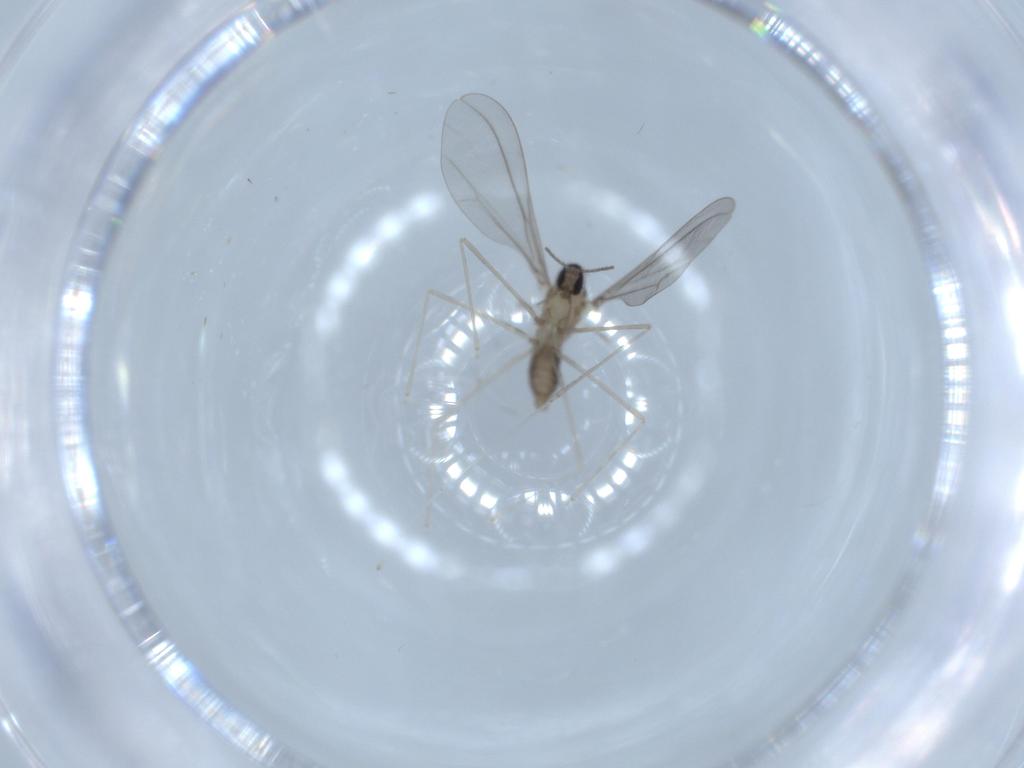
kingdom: Animalia
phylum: Arthropoda
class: Insecta
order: Diptera
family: Cecidomyiidae
